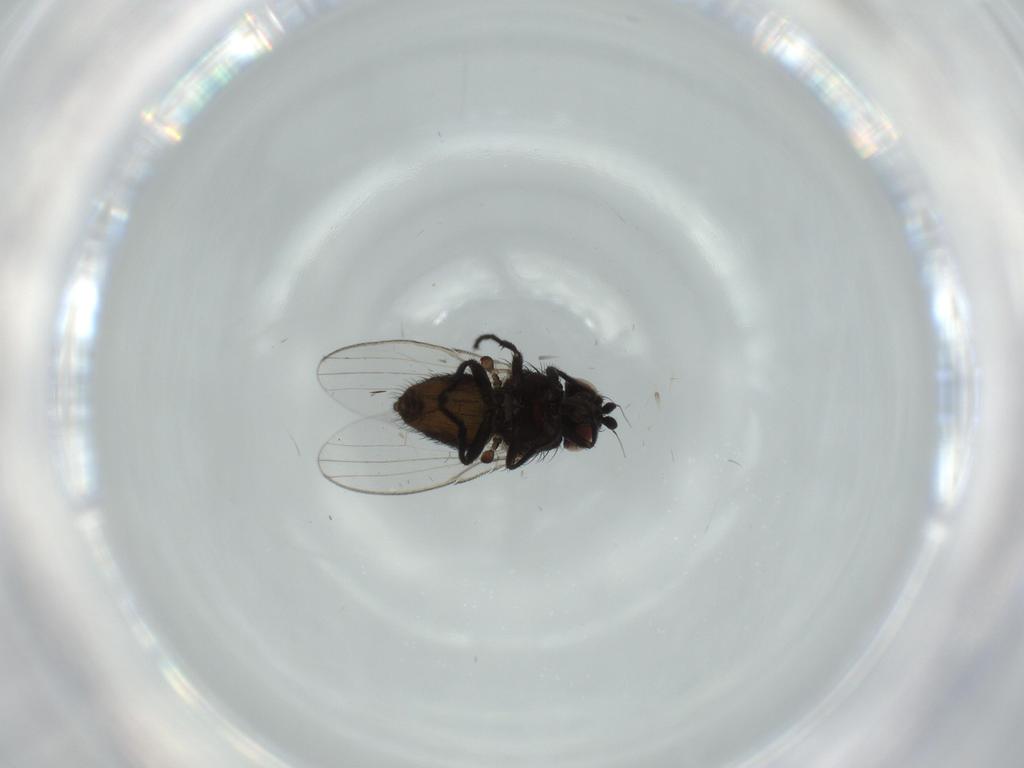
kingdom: Animalia
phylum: Arthropoda
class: Insecta
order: Diptera
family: Milichiidae
